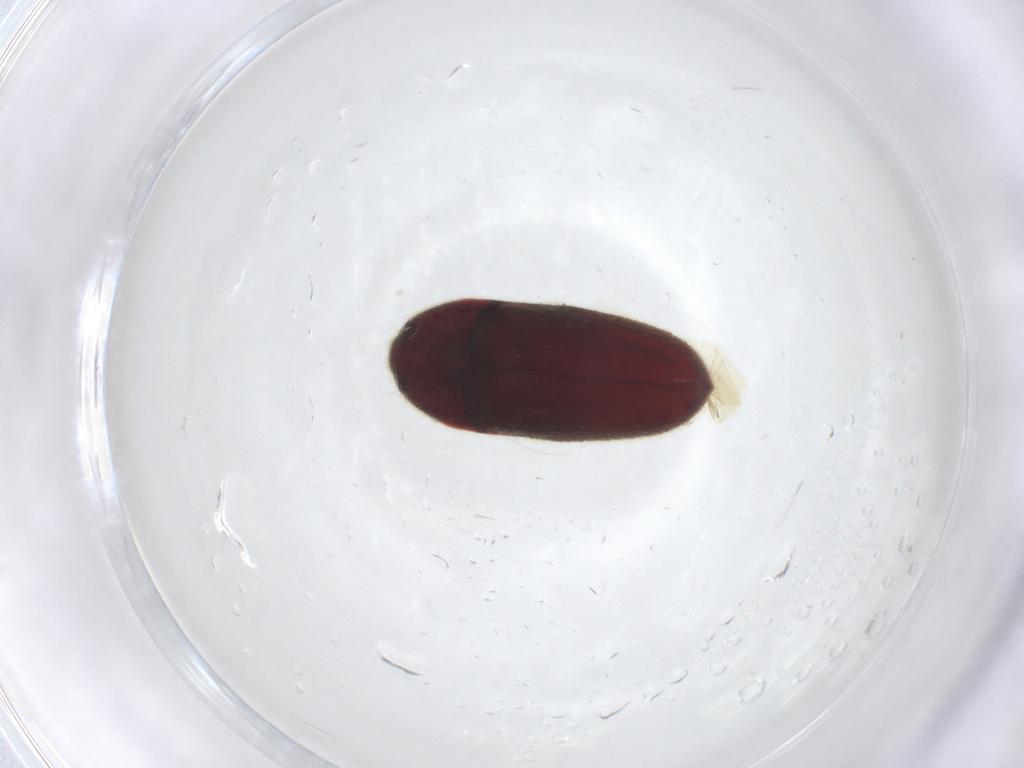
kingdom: Animalia
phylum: Arthropoda
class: Insecta
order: Coleoptera
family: Throscidae
